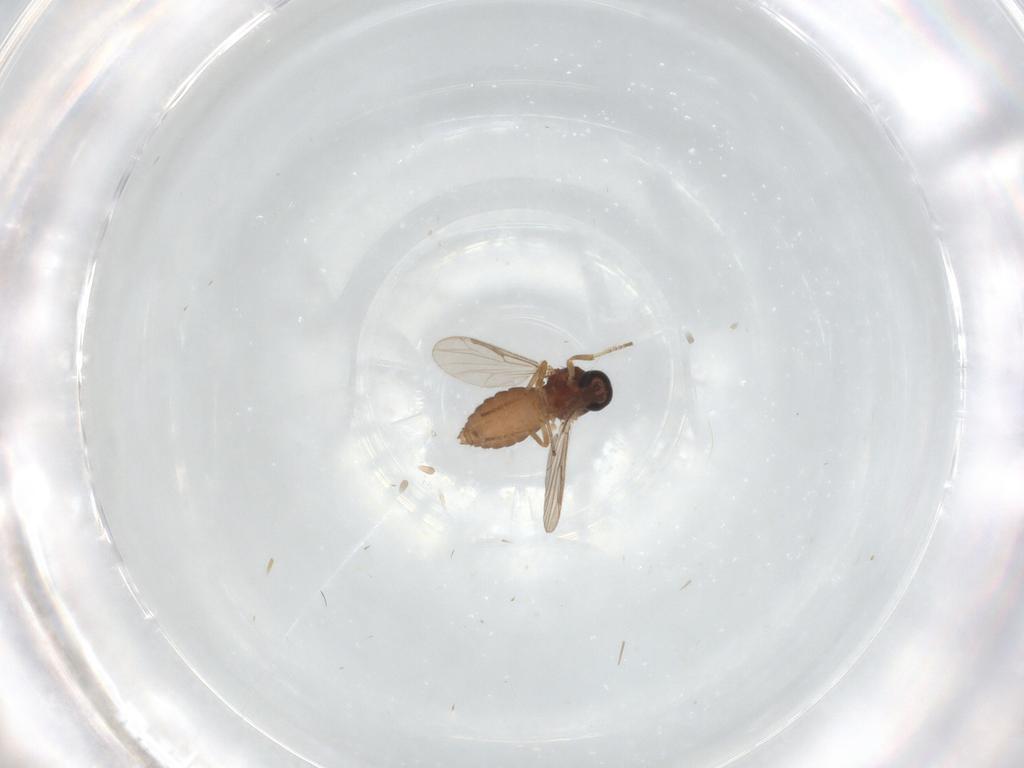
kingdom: Animalia
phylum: Arthropoda
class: Insecta
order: Diptera
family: Ceratopogonidae
